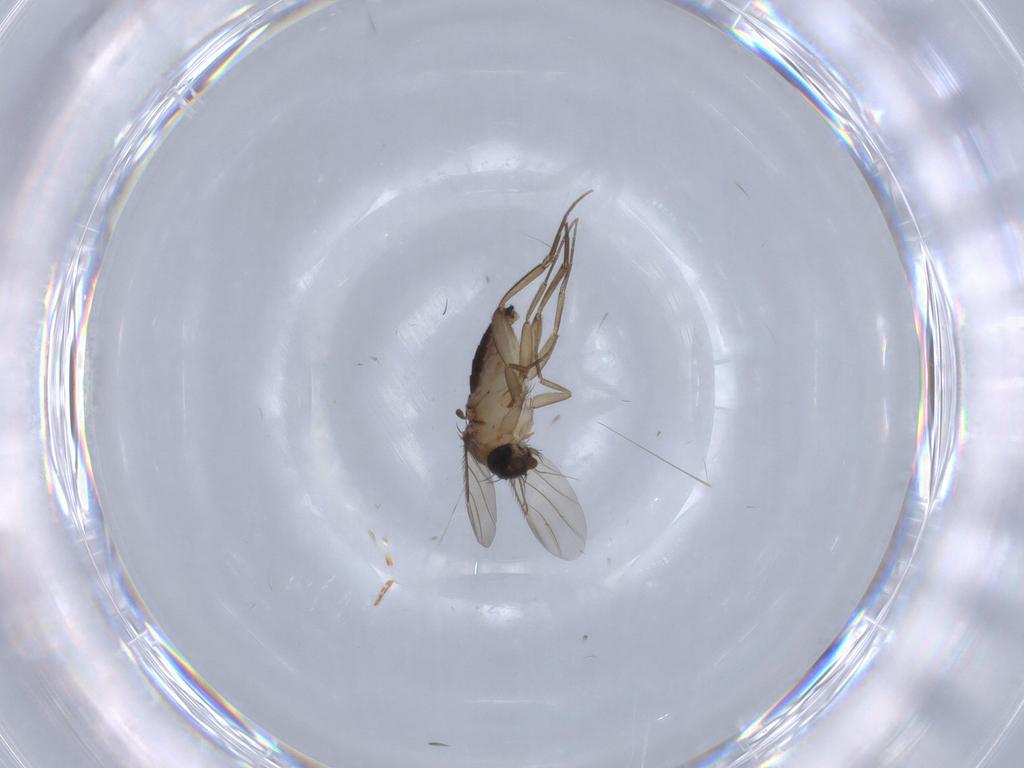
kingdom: Animalia
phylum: Arthropoda
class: Insecta
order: Diptera
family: Phoridae
